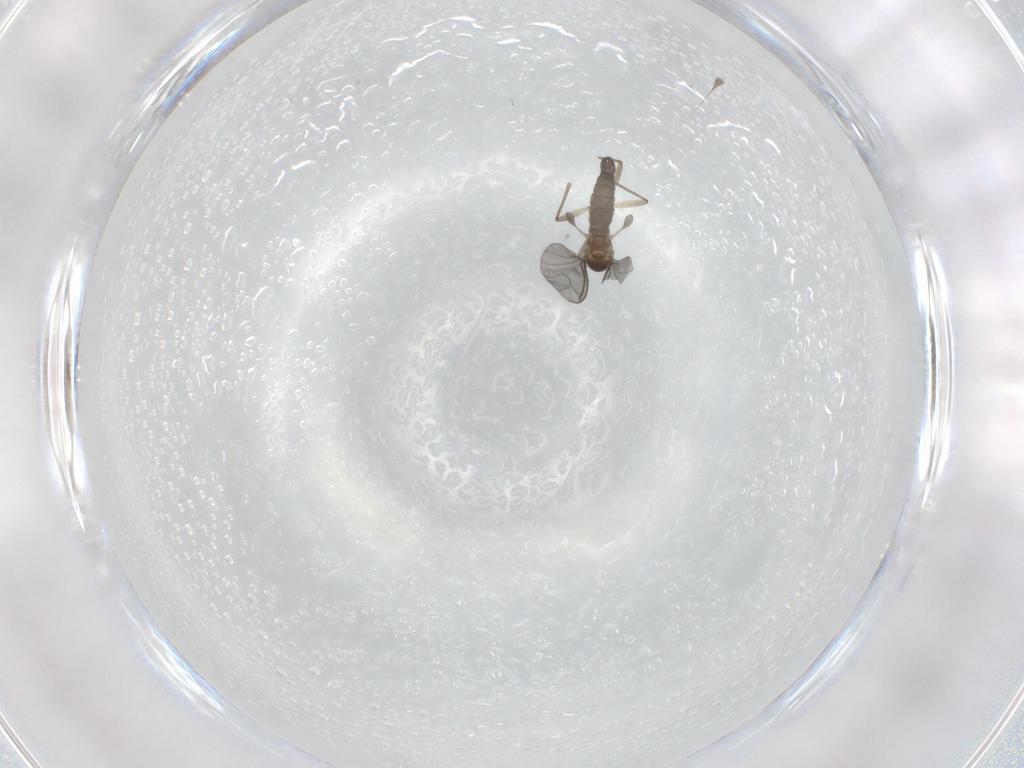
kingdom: Animalia
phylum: Arthropoda
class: Insecta
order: Diptera
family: Sciaridae
